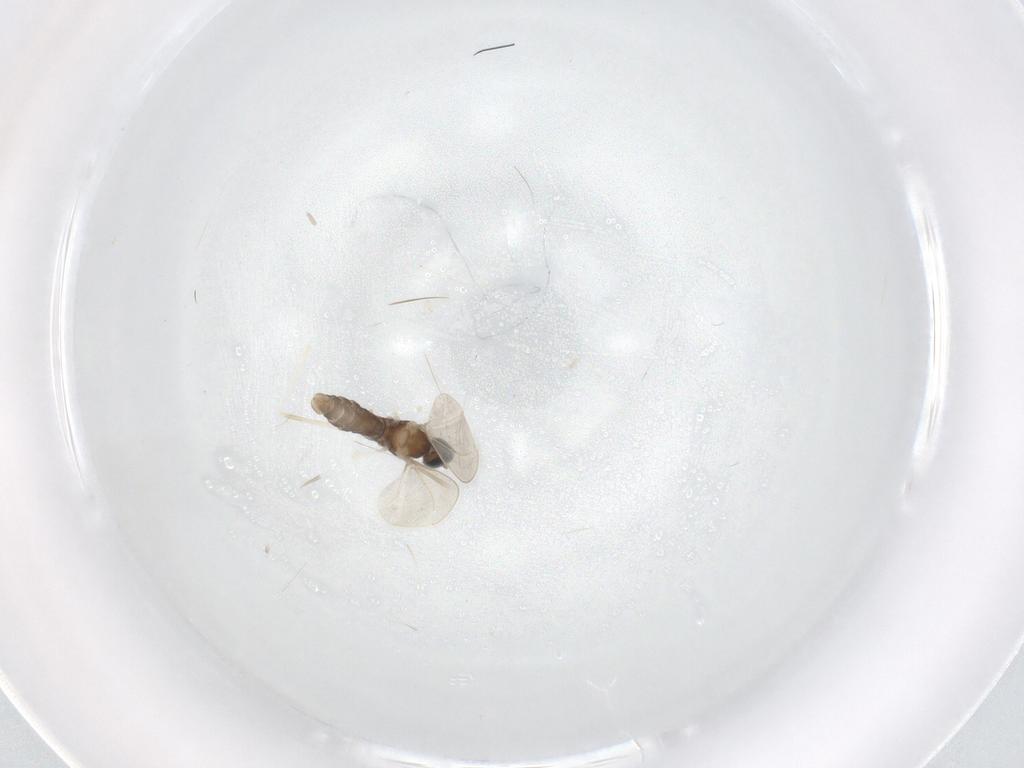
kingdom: Animalia
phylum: Arthropoda
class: Insecta
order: Diptera
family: Cecidomyiidae
